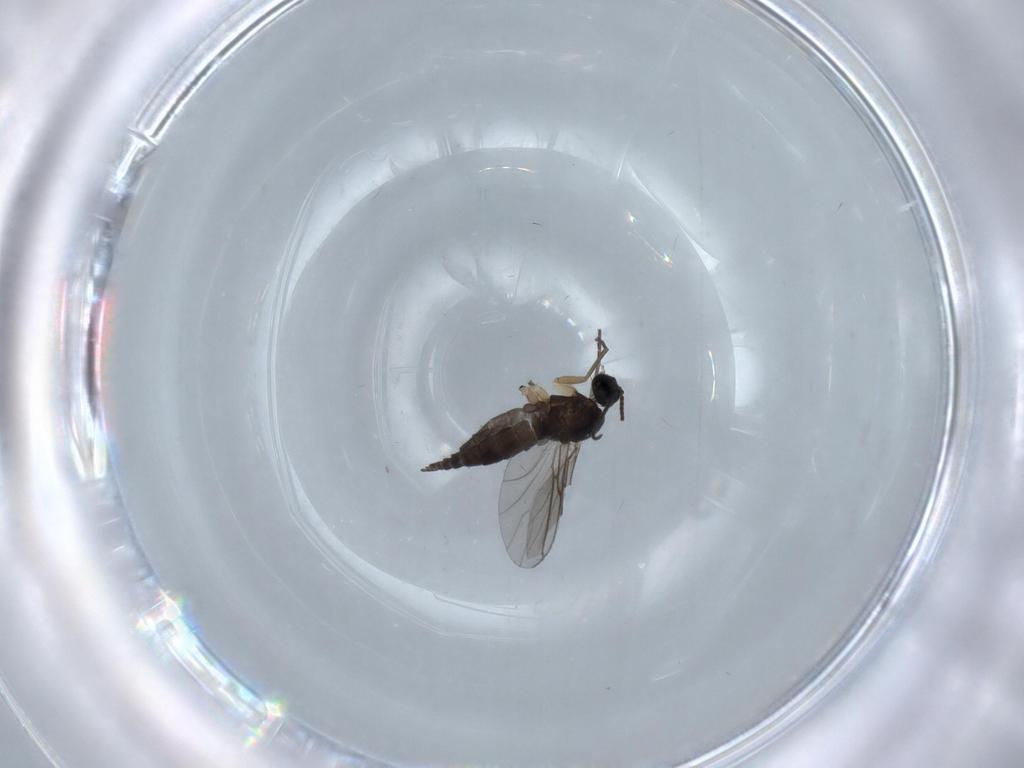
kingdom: Animalia
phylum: Arthropoda
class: Insecta
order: Diptera
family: Sciaridae
